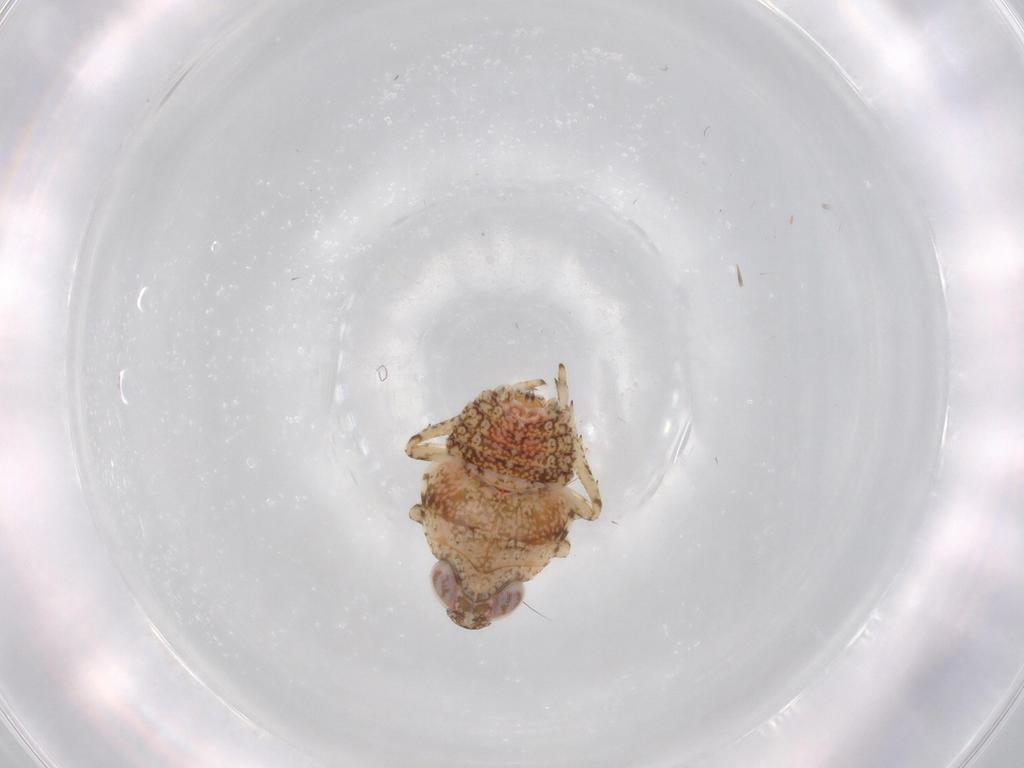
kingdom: Animalia
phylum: Arthropoda
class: Insecta
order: Hemiptera
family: Issidae
